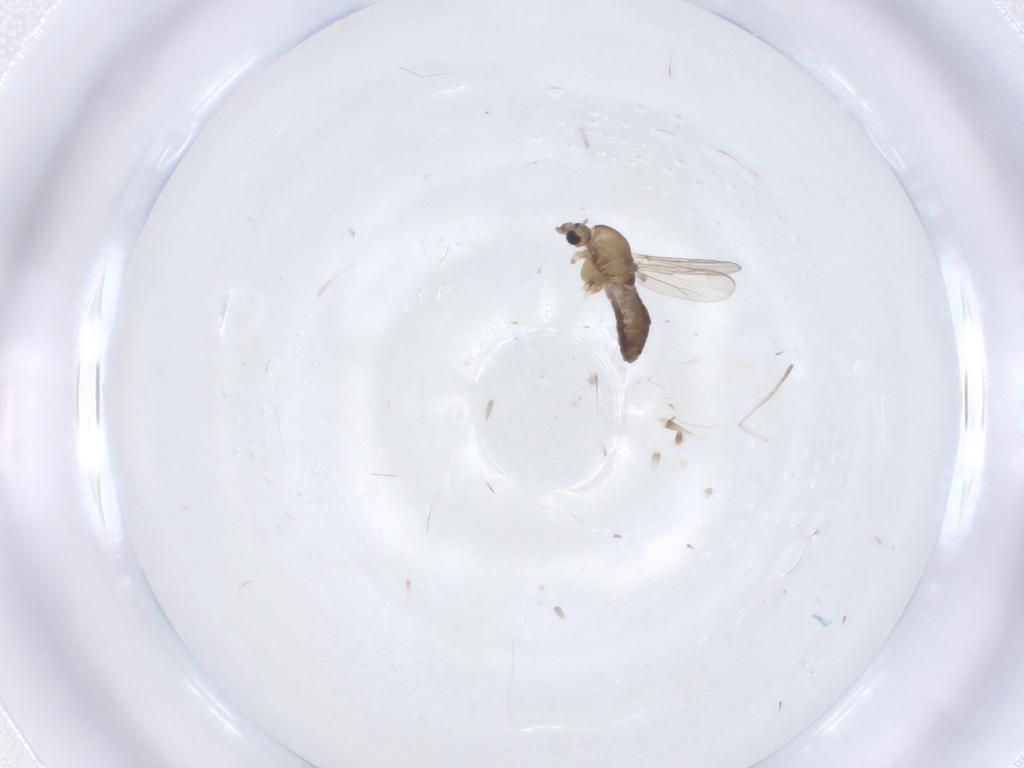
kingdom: Animalia
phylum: Arthropoda
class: Insecta
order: Diptera
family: Chironomidae
